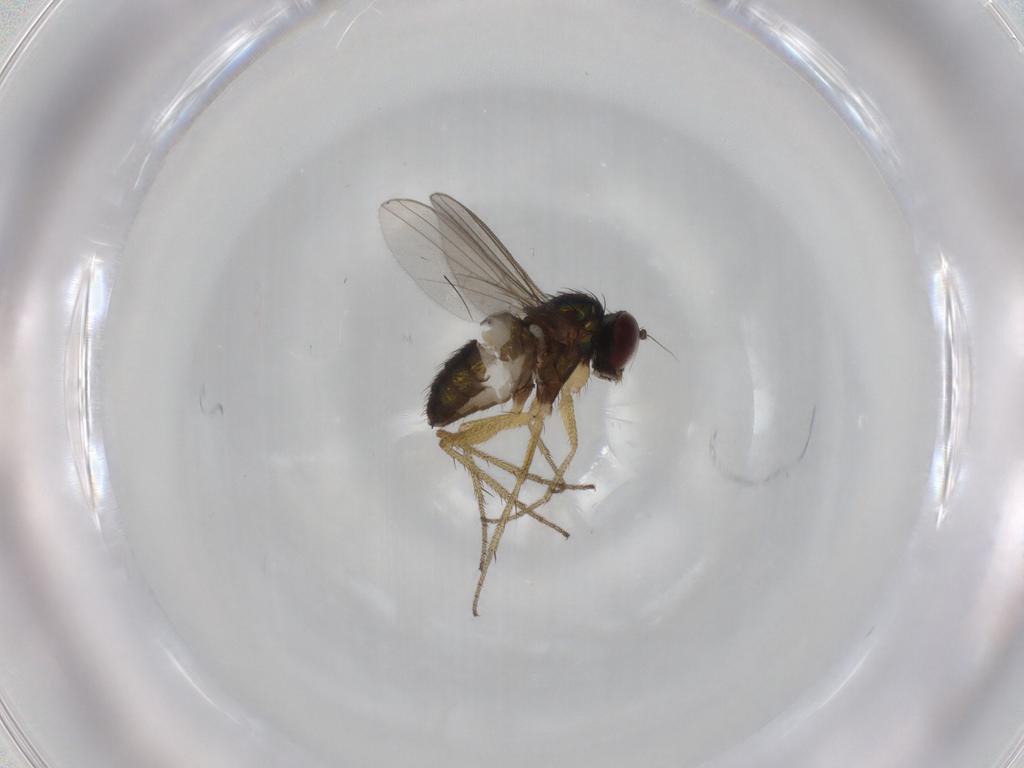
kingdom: Animalia
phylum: Arthropoda
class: Insecta
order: Diptera
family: Dolichopodidae
